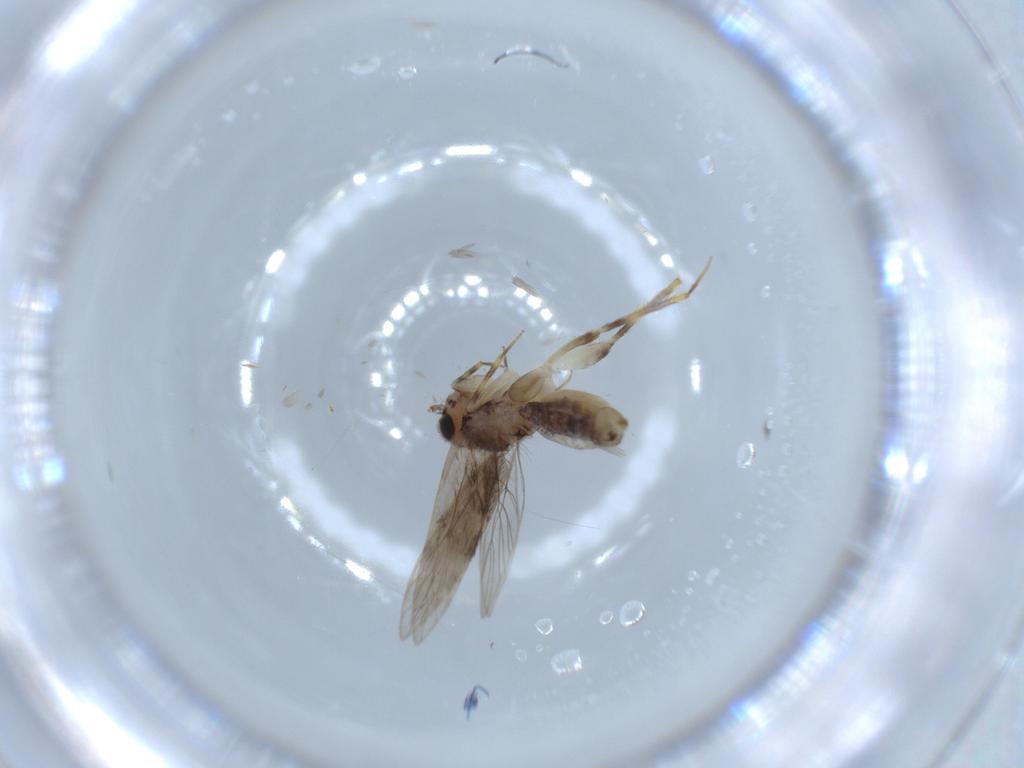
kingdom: Animalia
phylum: Arthropoda
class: Insecta
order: Psocodea
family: Lepidopsocidae
